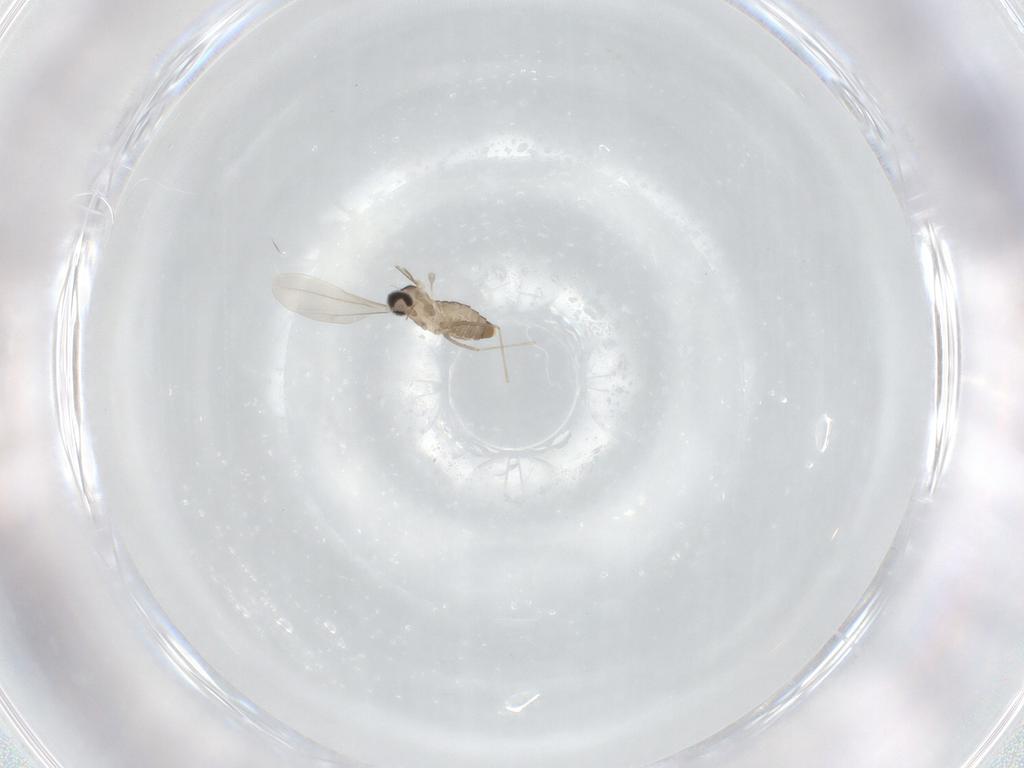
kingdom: Animalia
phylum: Arthropoda
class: Insecta
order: Diptera
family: Cecidomyiidae
